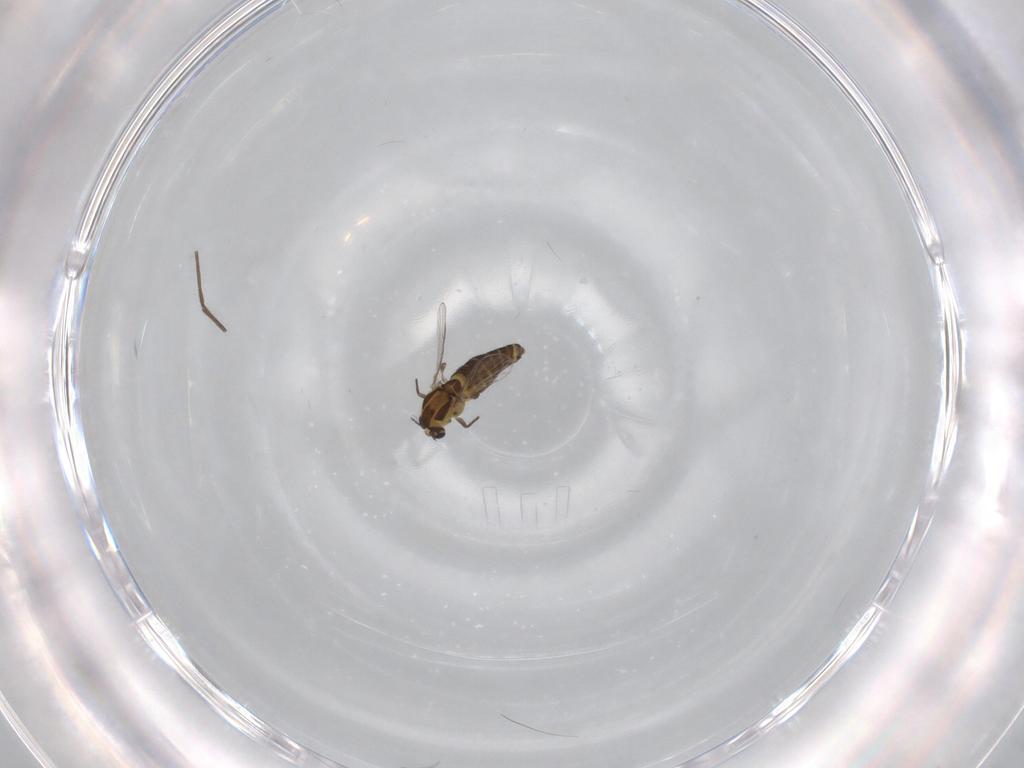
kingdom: Animalia
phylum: Arthropoda
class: Insecta
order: Diptera
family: Chironomidae
